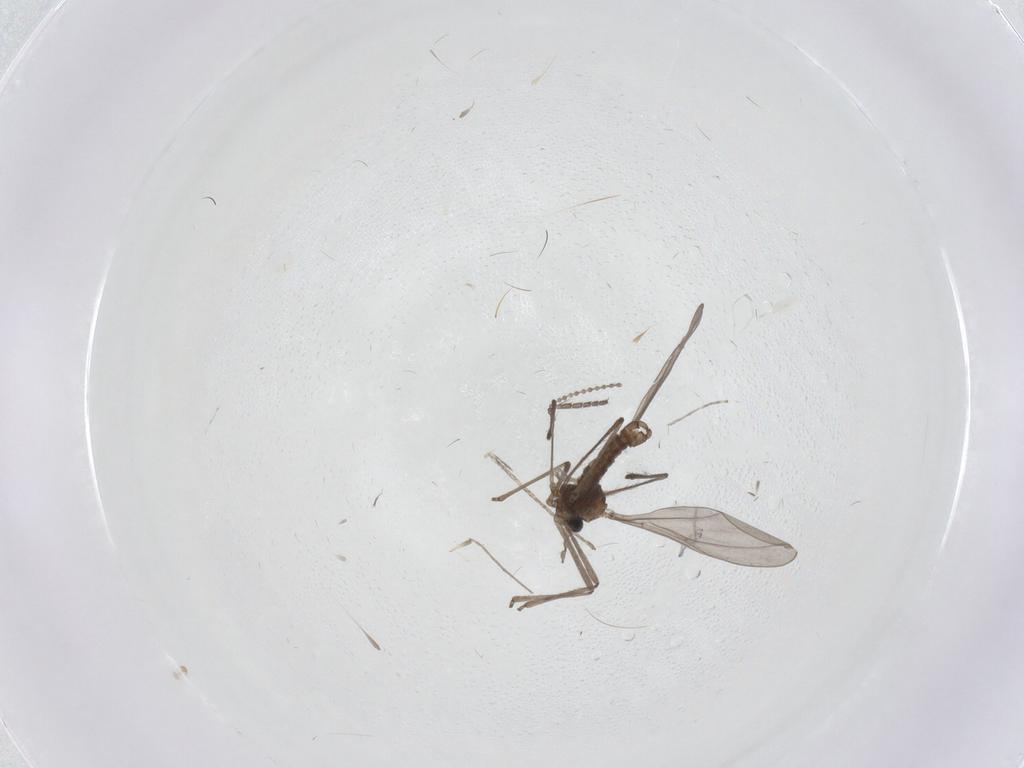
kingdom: Animalia
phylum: Arthropoda
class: Insecta
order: Diptera
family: Cecidomyiidae
